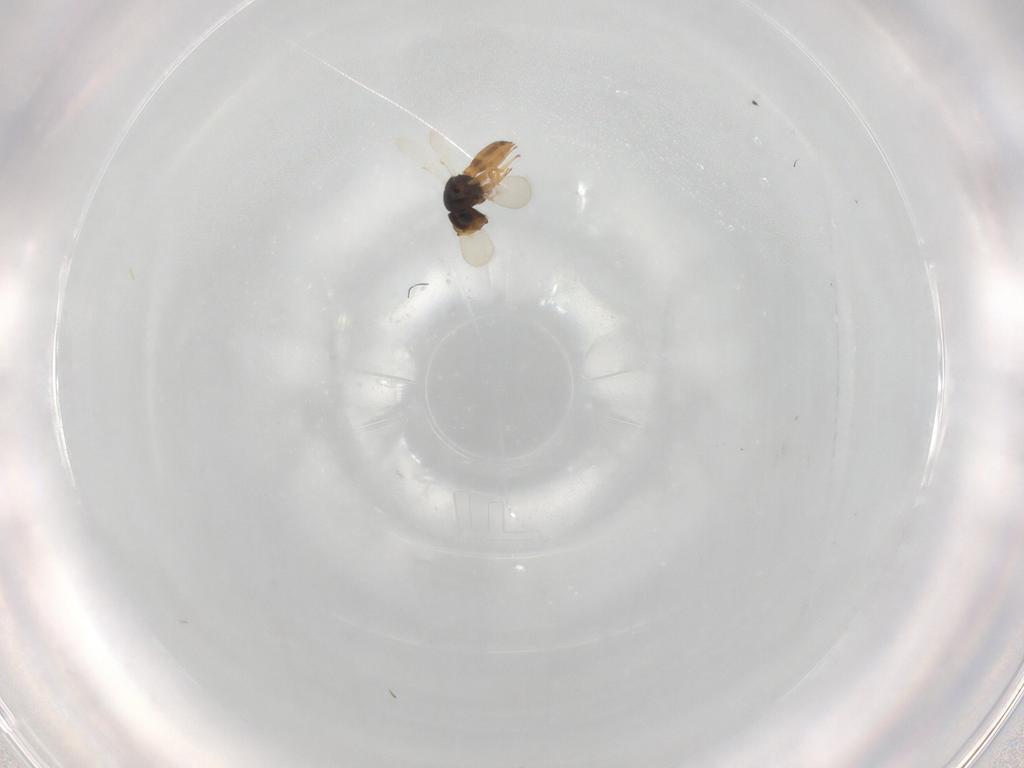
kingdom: Animalia
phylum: Arthropoda
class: Insecta
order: Hymenoptera
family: Scelionidae
